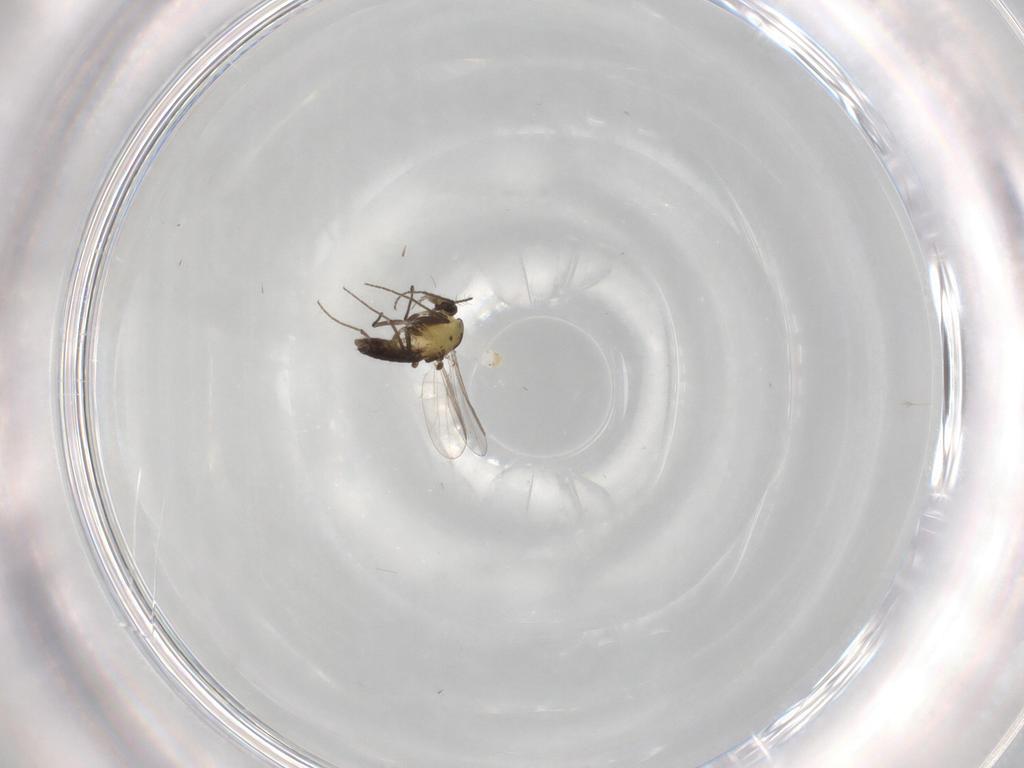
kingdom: Animalia
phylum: Arthropoda
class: Insecta
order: Diptera
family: Chironomidae
